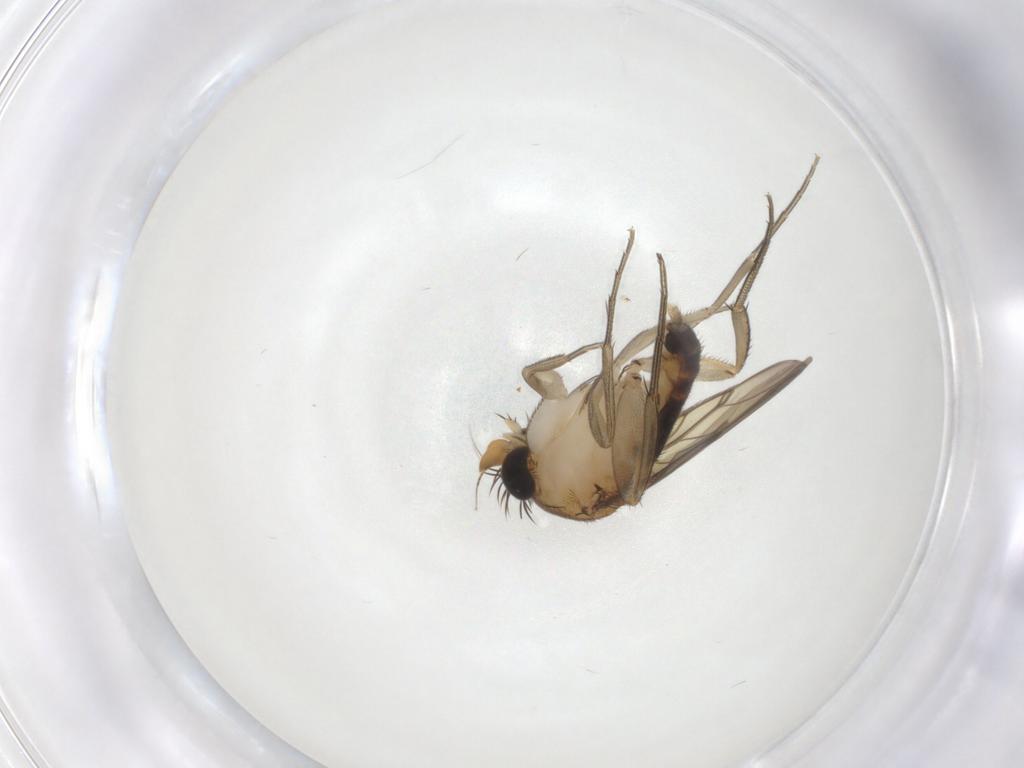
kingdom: Animalia
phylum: Arthropoda
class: Insecta
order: Diptera
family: Phoridae
